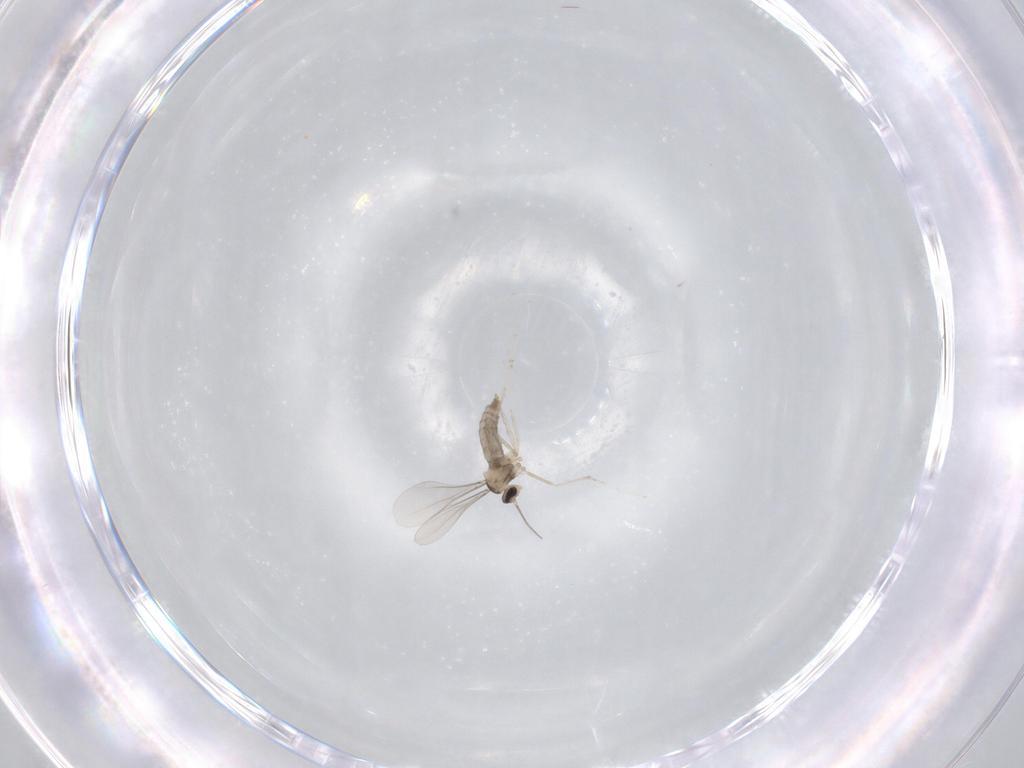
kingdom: Animalia
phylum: Arthropoda
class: Insecta
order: Diptera
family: Cecidomyiidae
